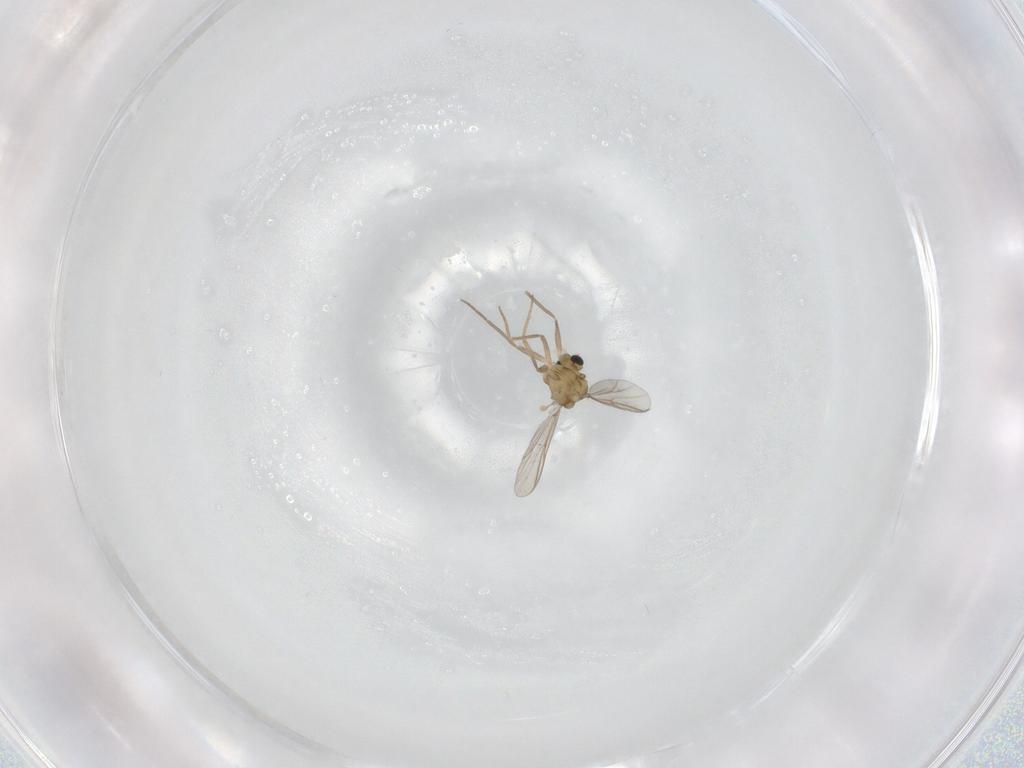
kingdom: Animalia
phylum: Arthropoda
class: Insecta
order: Diptera
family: Chironomidae
